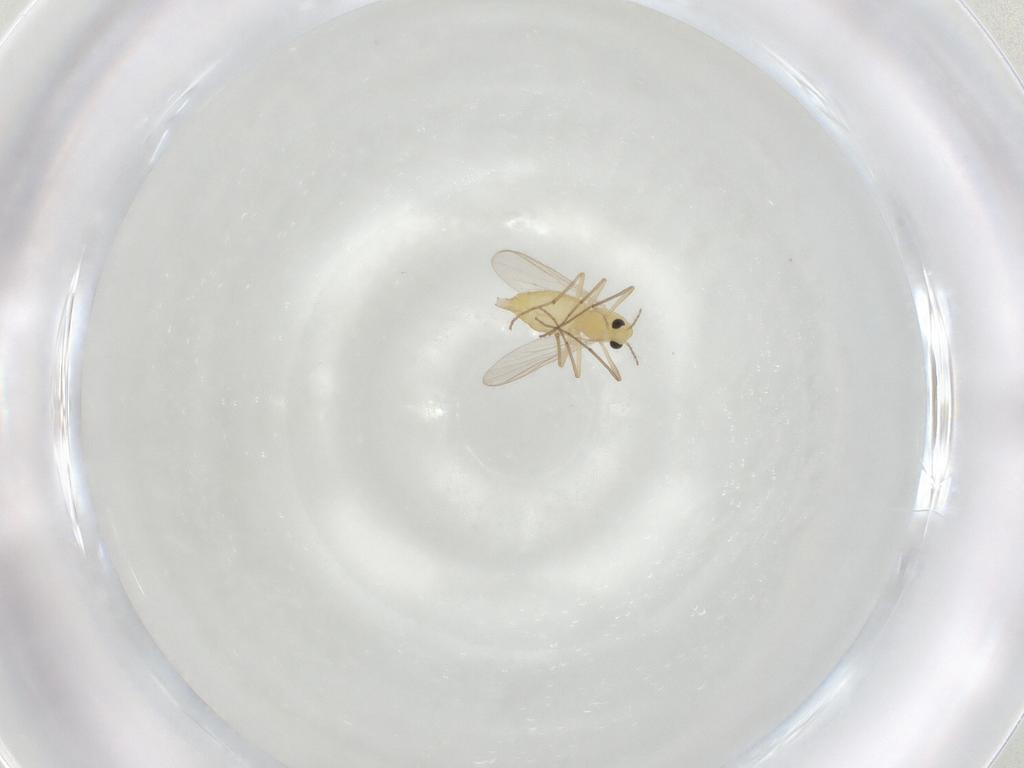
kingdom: Animalia
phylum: Arthropoda
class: Insecta
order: Diptera
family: Chironomidae
